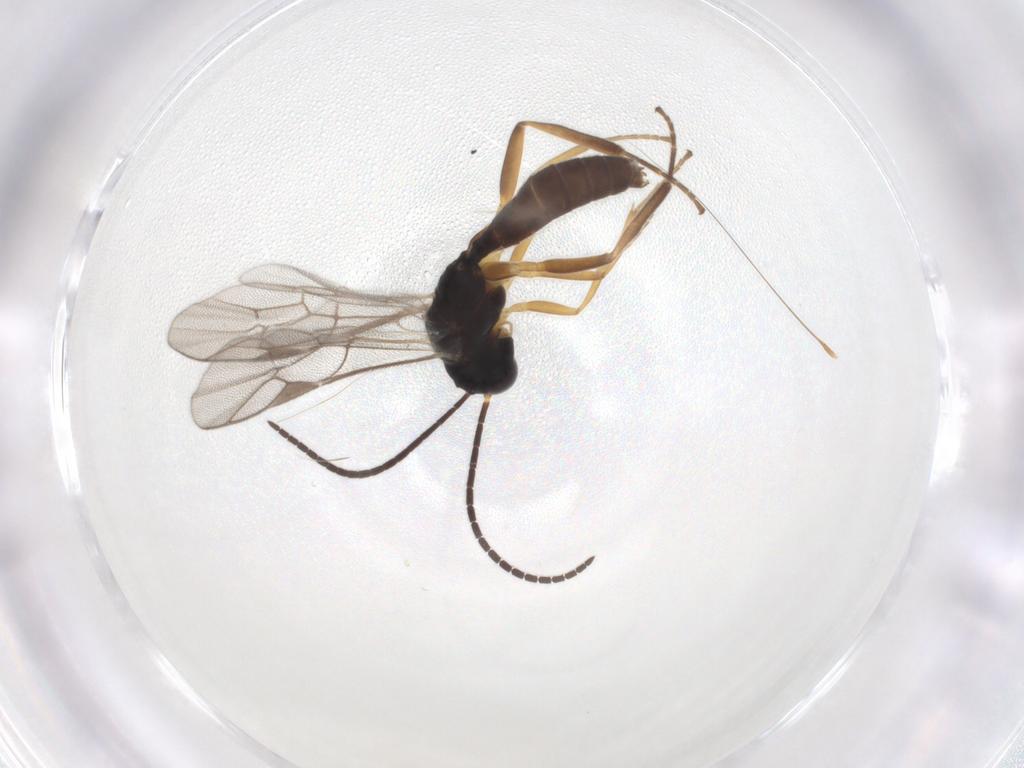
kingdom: Animalia
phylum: Arthropoda
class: Insecta
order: Hymenoptera
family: Ichneumonidae
